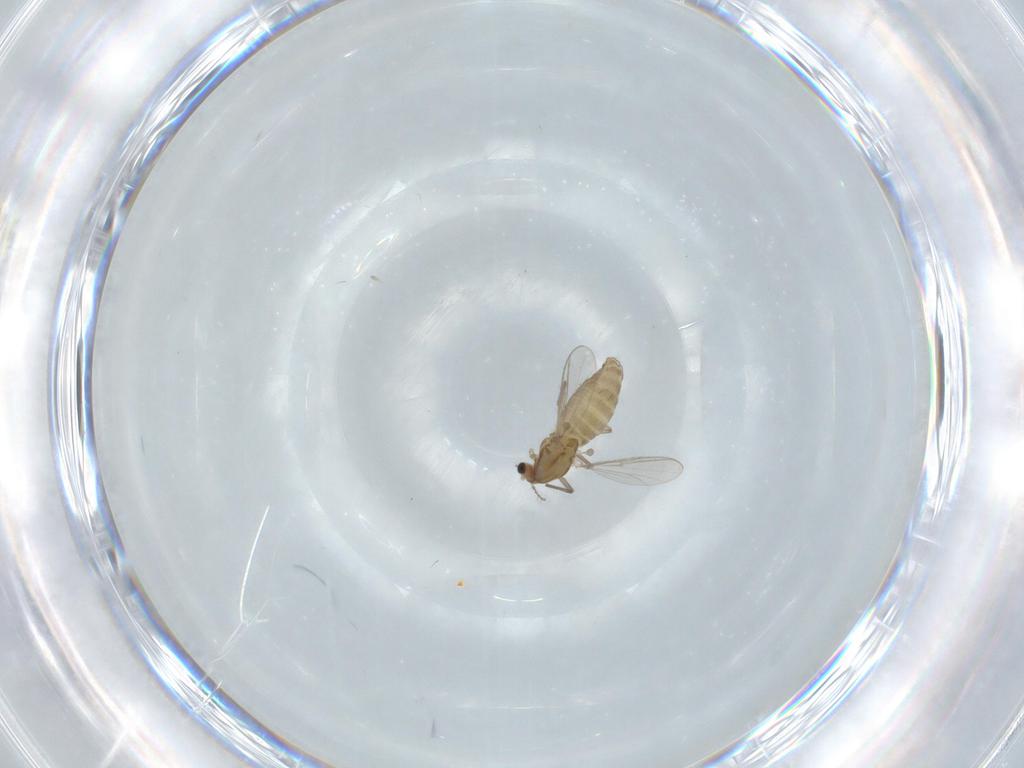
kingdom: Animalia
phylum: Arthropoda
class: Insecta
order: Diptera
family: Chironomidae
